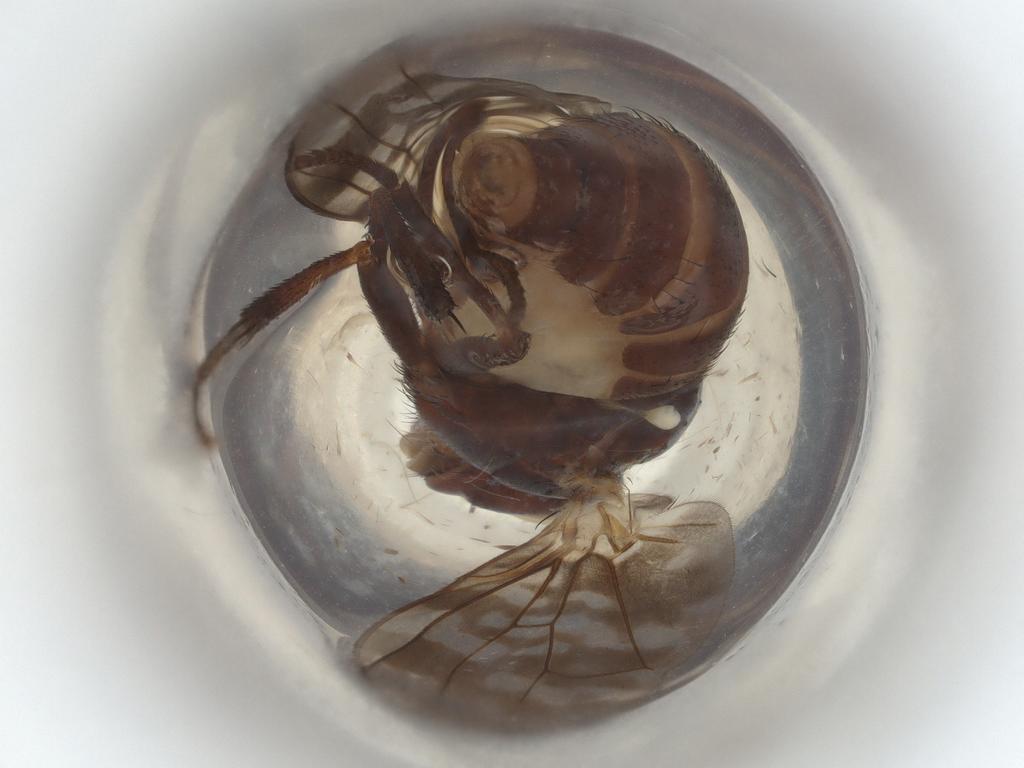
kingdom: Animalia
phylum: Arthropoda
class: Insecta
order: Lepidoptera
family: Pterophoridae
